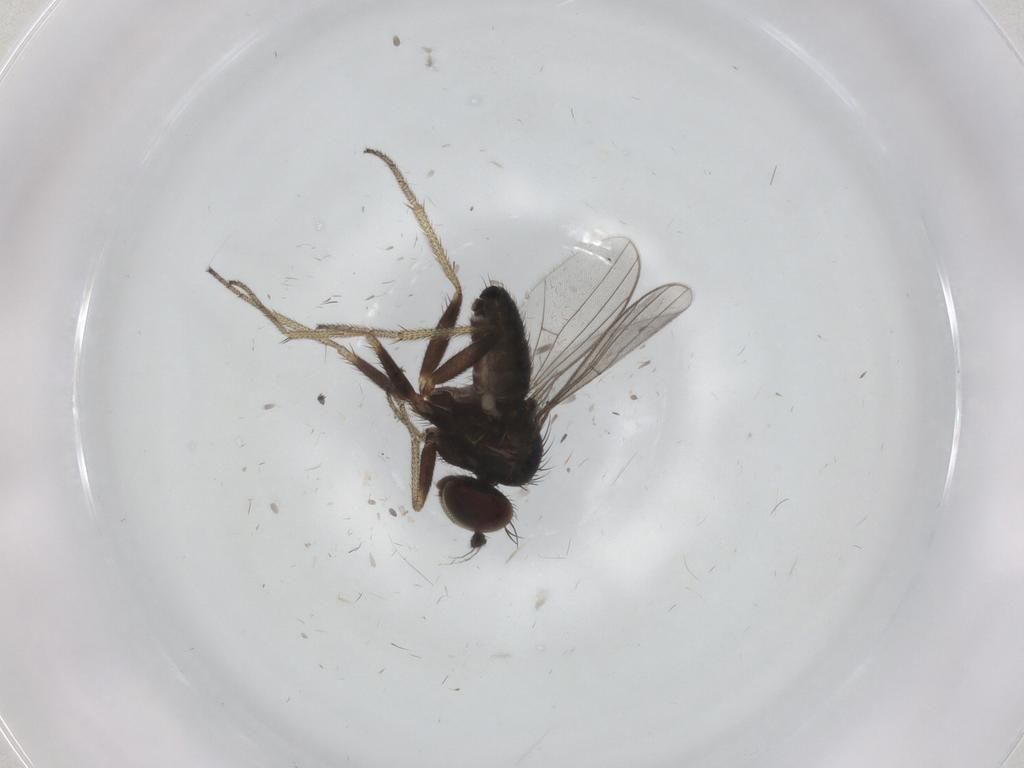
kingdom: Animalia
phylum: Arthropoda
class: Insecta
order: Diptera
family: Dolichopodidae
